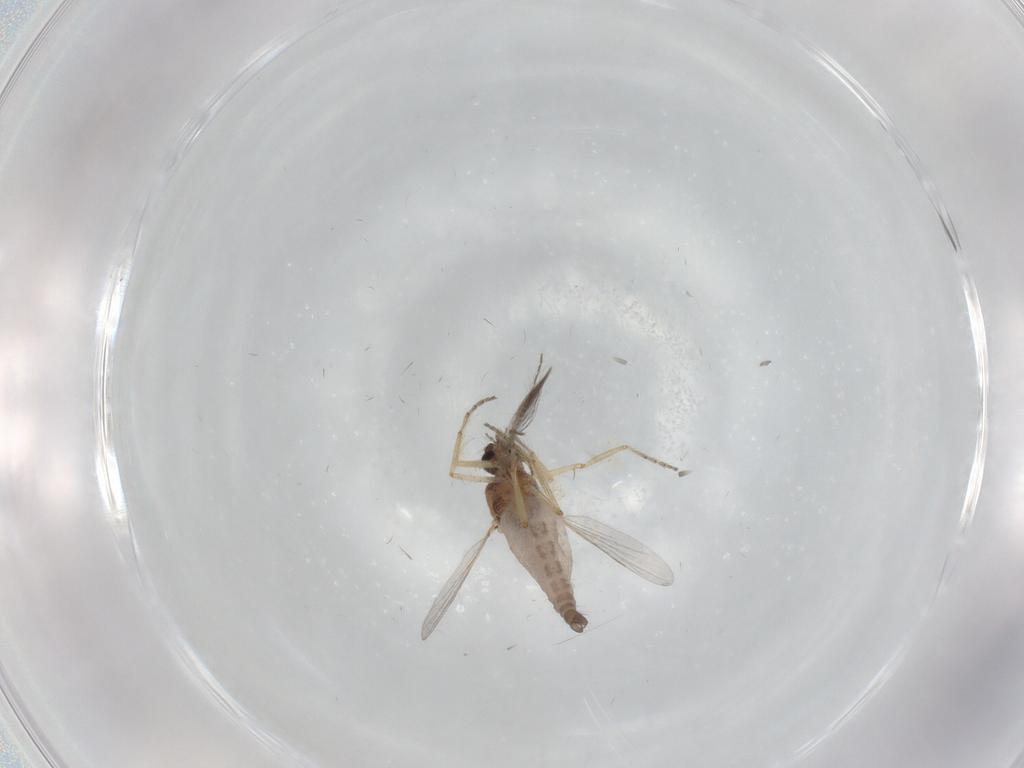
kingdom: Animalia
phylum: Arthropoda
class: Insecta
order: Diptera
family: Ceratopogonidae
